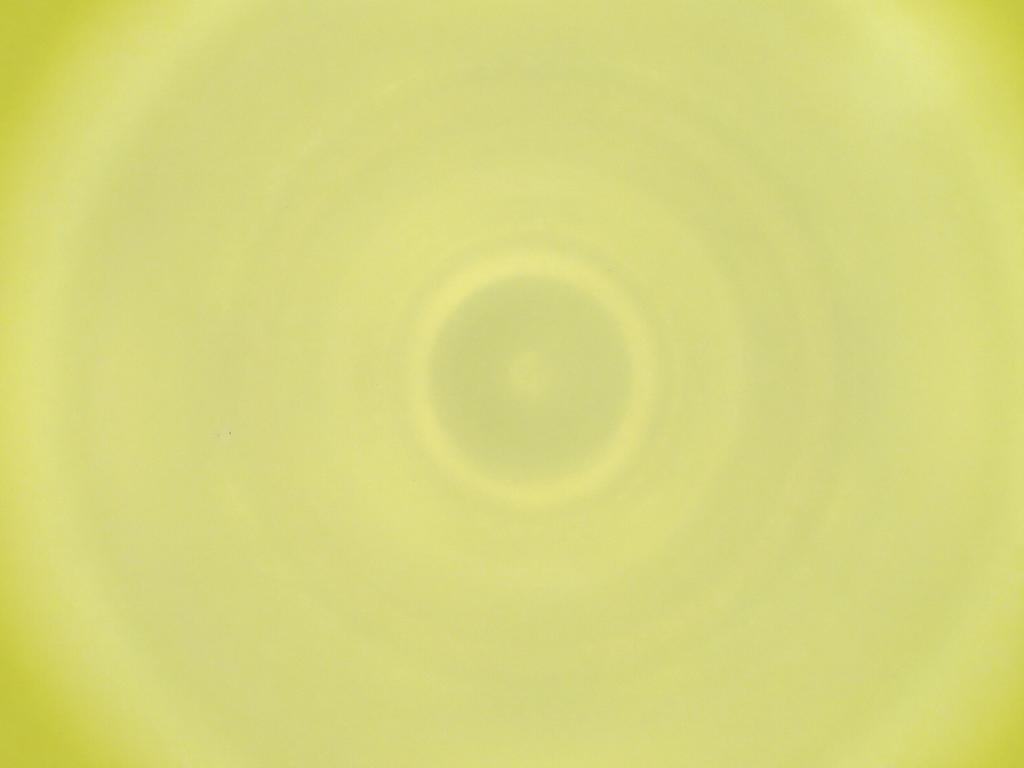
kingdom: Animalia
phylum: Arthropoda
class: Insecta
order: Diptera
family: Cecidomyiidae
